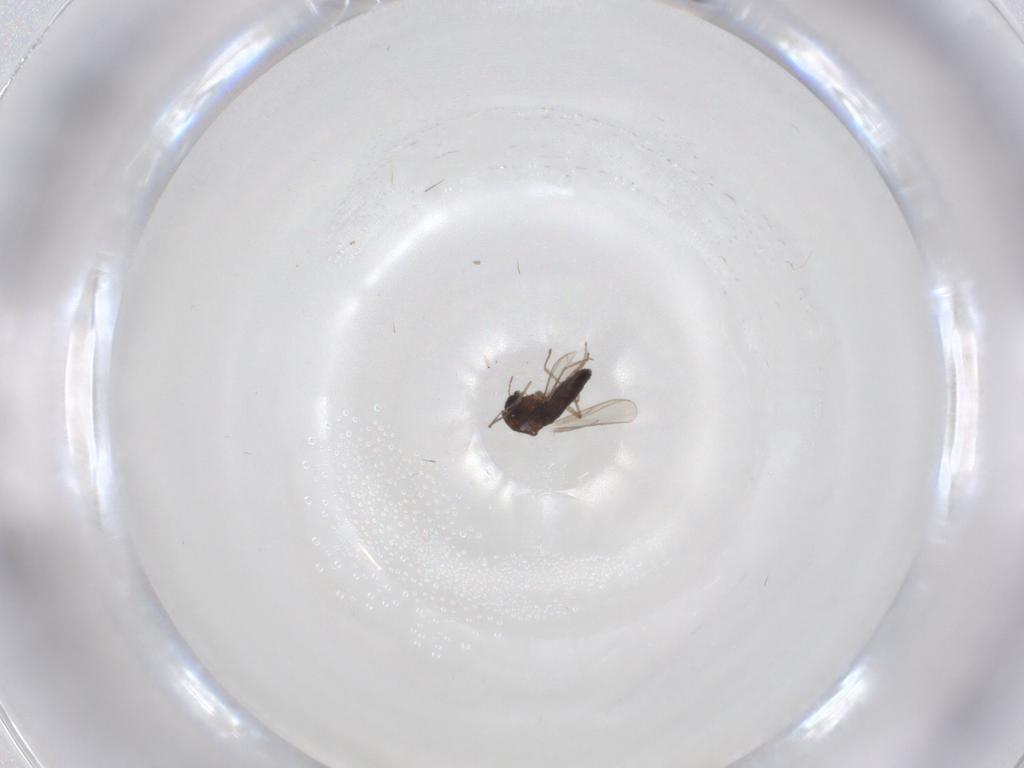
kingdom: Animalia
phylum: Arthropoda
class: Insecta
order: Diptera
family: Chironomidae
